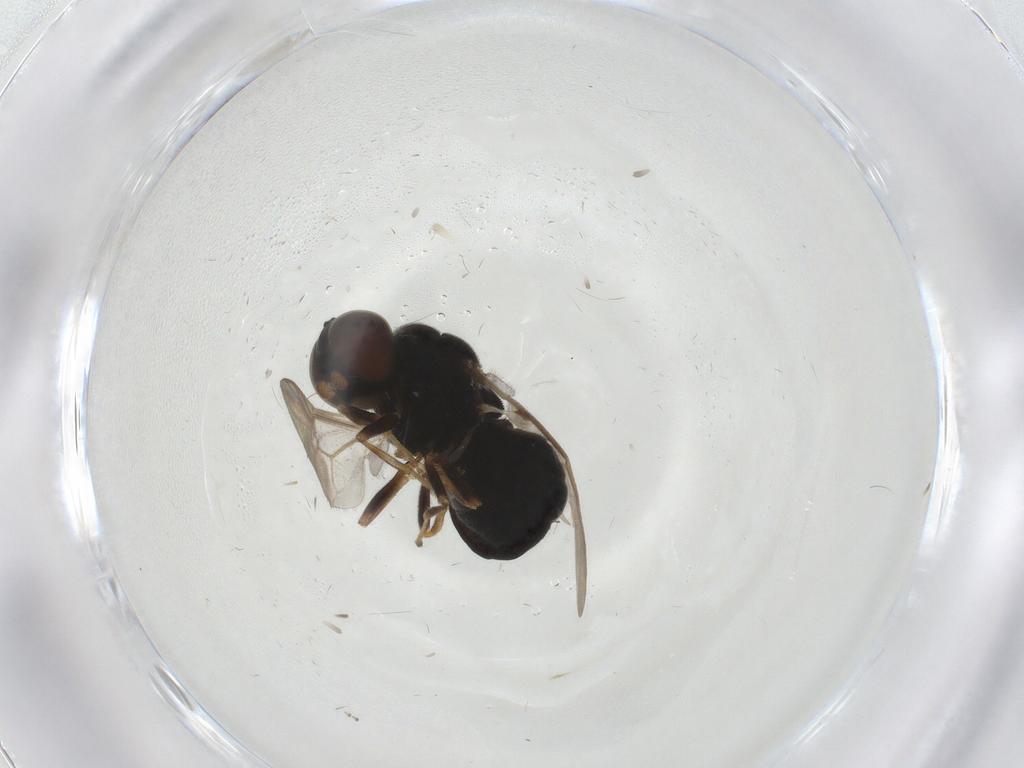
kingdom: Animalia
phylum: Arthropoda
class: Insecta
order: Diptera
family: Stratiomyidae
